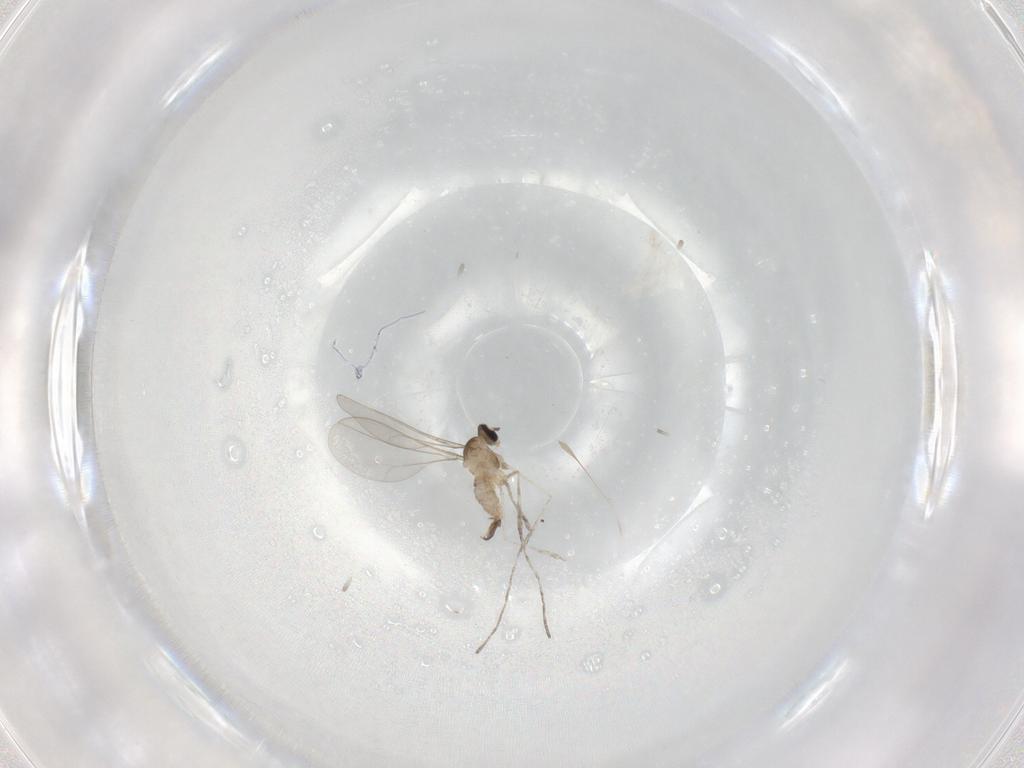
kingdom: Animalia
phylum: Arthropoda
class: Insecta
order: Diptera
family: Cecidomyiidae
